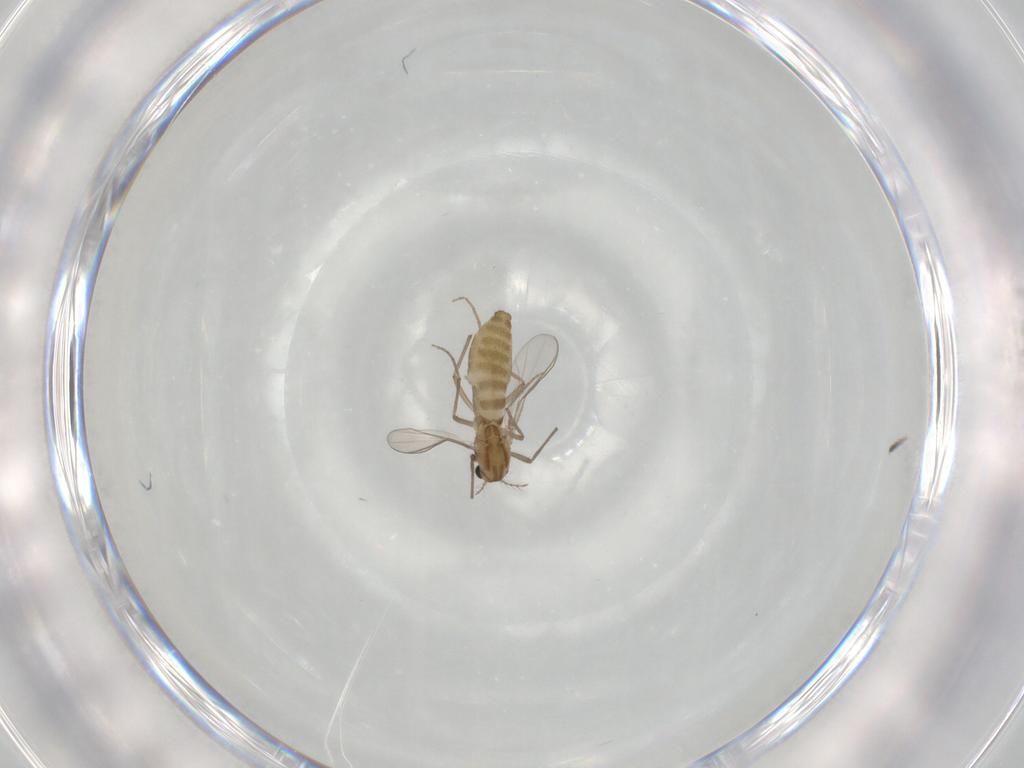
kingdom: Animalia
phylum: Arthropoda
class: Insecta
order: Diptera
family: Chironomidae
